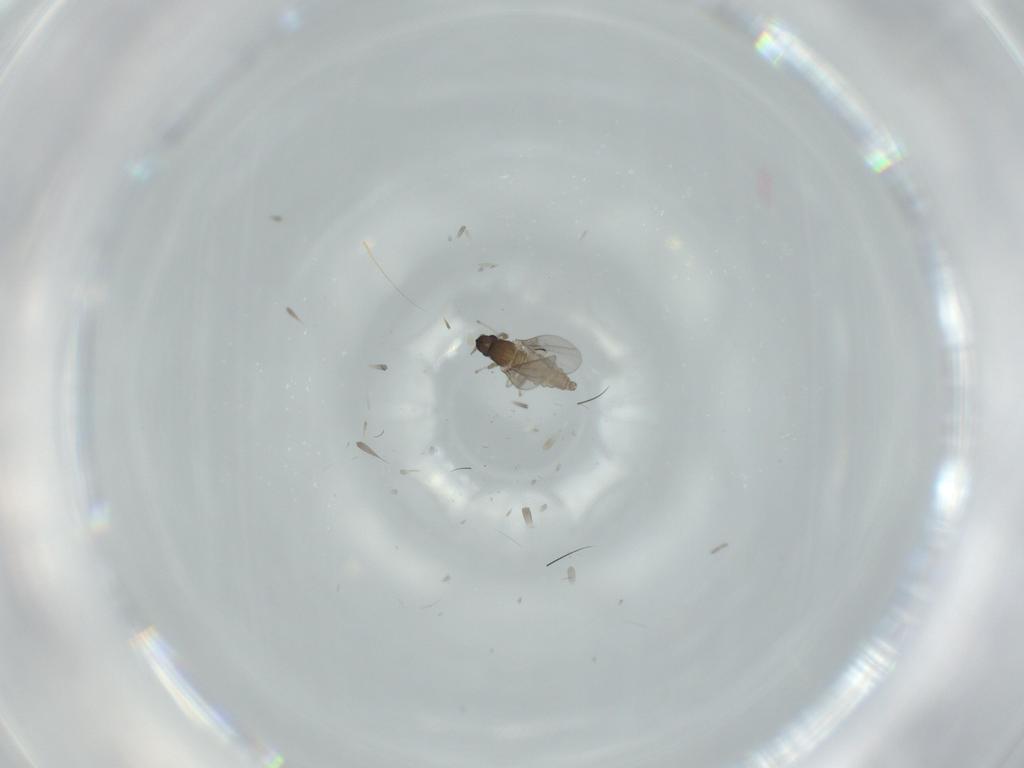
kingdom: Animalia
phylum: Arthropoda
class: Insecta
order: Diptera
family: Cecidomyiidae
